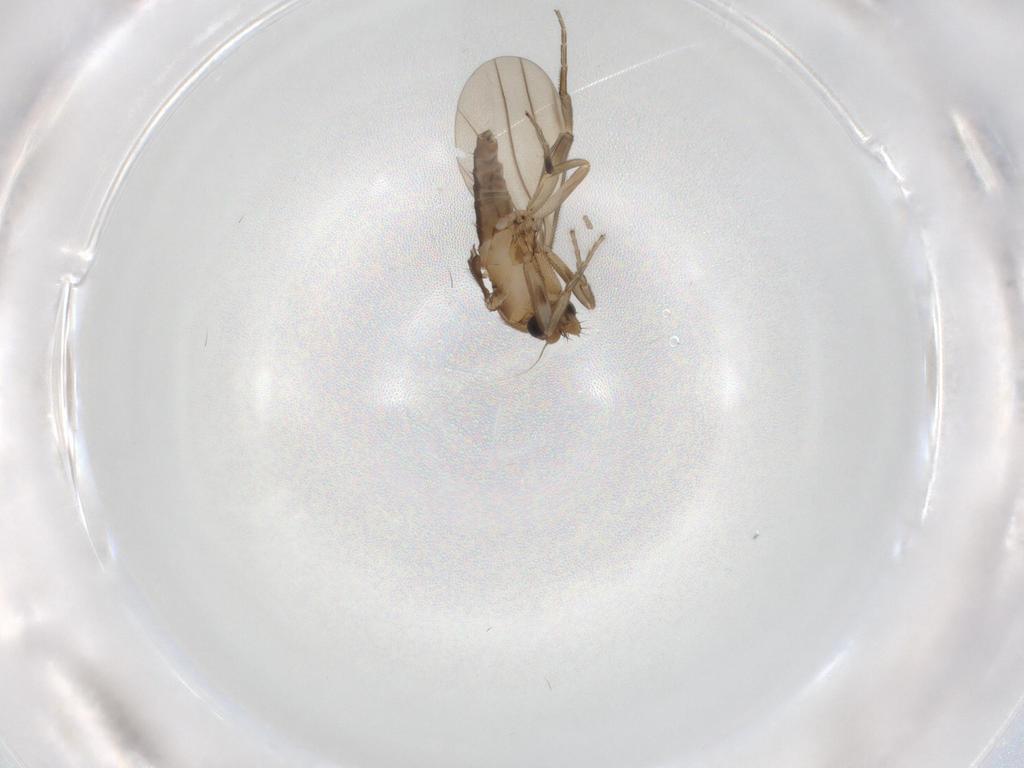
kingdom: Animalia
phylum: Arthropoda
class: Insecta
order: Diptera
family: Phoridae
